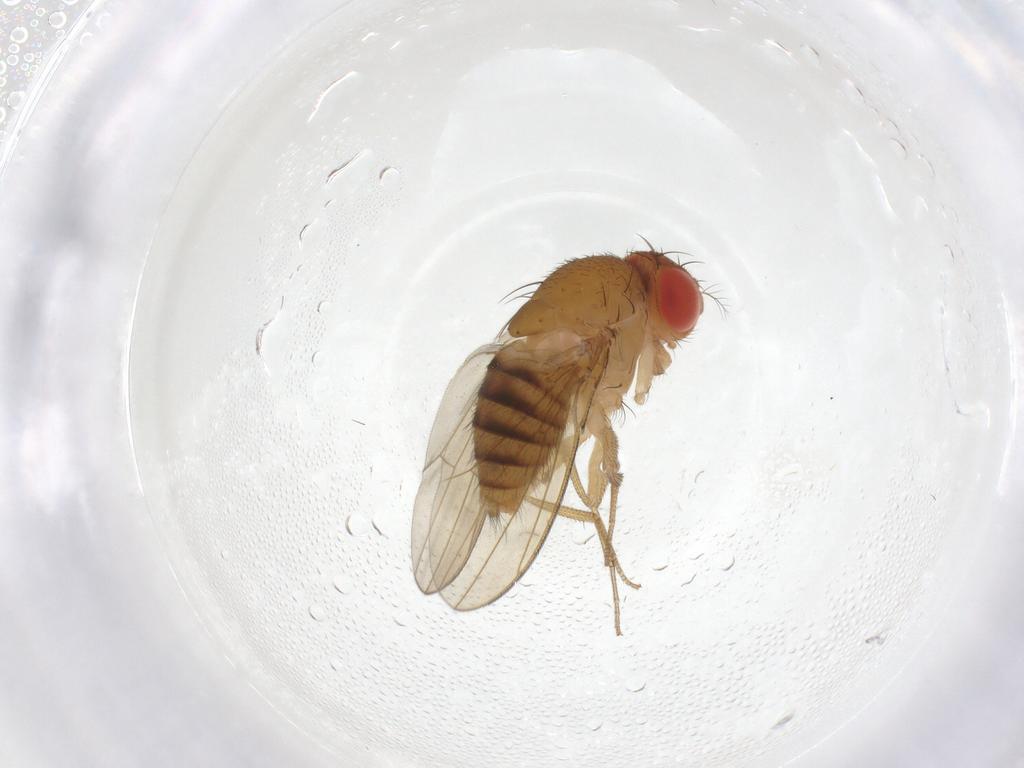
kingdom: Animalia
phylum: Arthropoda
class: Insecta
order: Diptera
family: Drosophilidae
